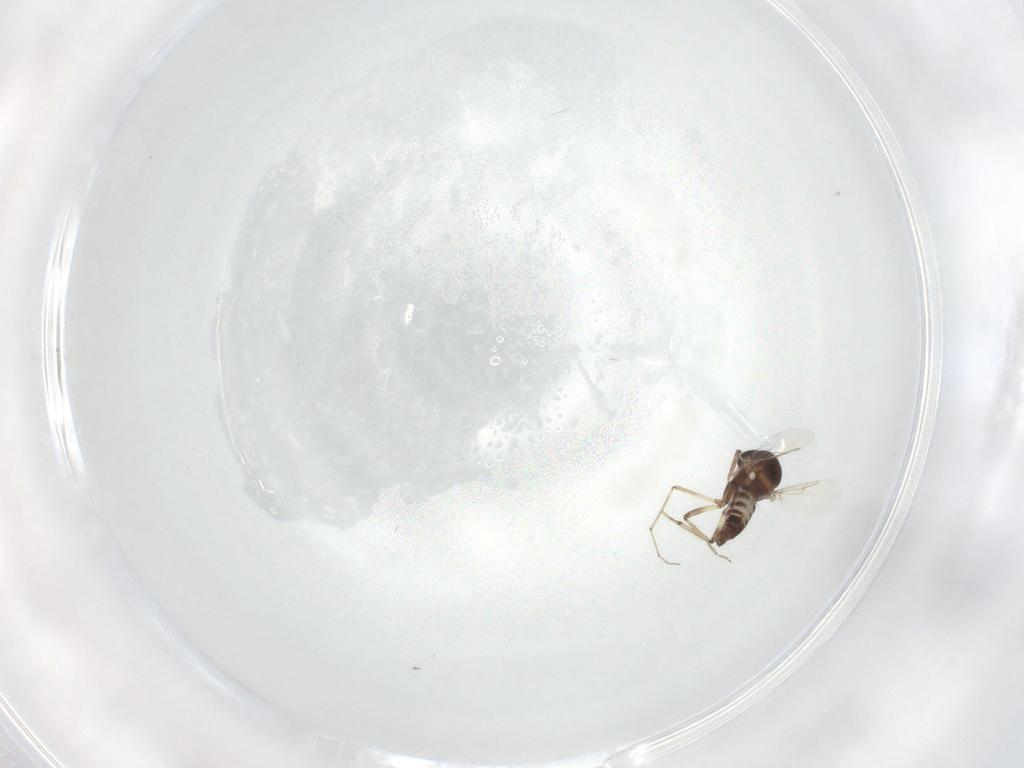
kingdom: Animalia
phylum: Arthropoda
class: Insecta
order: Diptera
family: Ceratopogonidae
